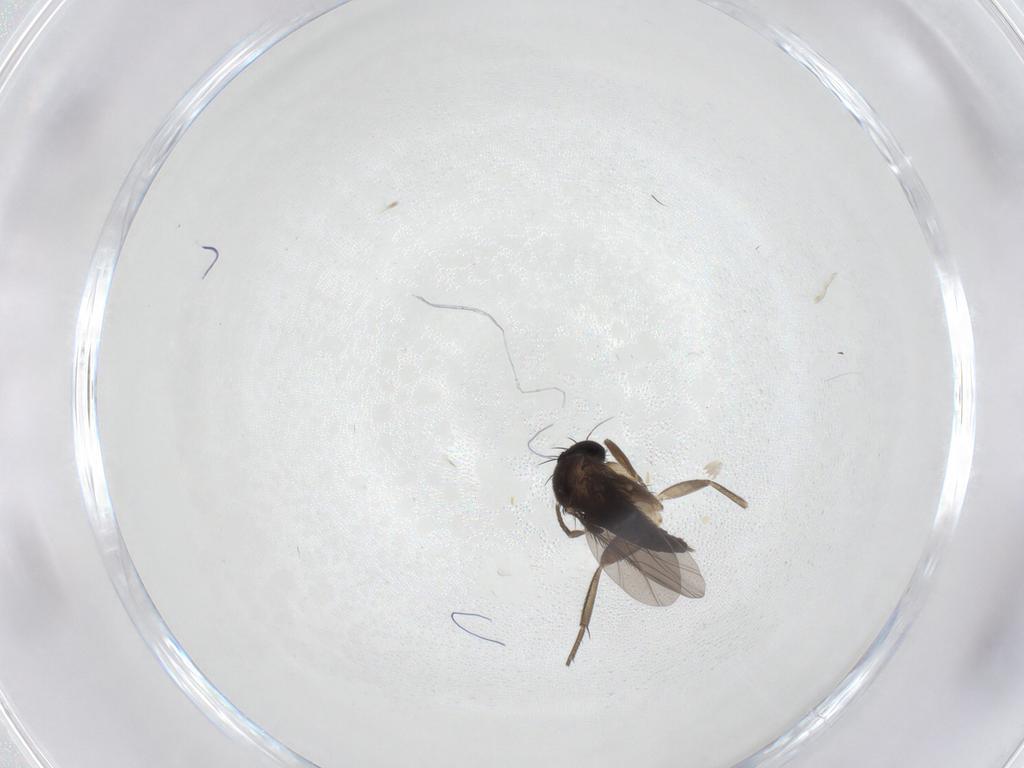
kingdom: Animalia
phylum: Arthropoda
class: Insecta
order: Diptera
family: Phoridae
